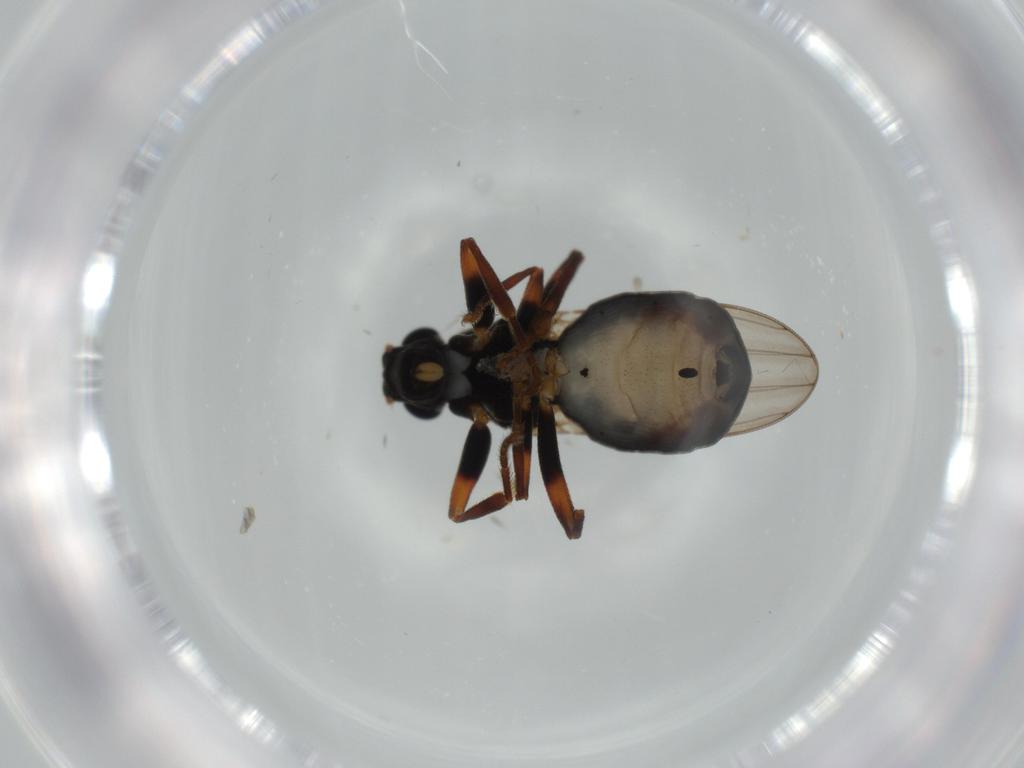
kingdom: Animalia
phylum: Arthropoda
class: Insecta
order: Diptera
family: Sphaeroceridae
